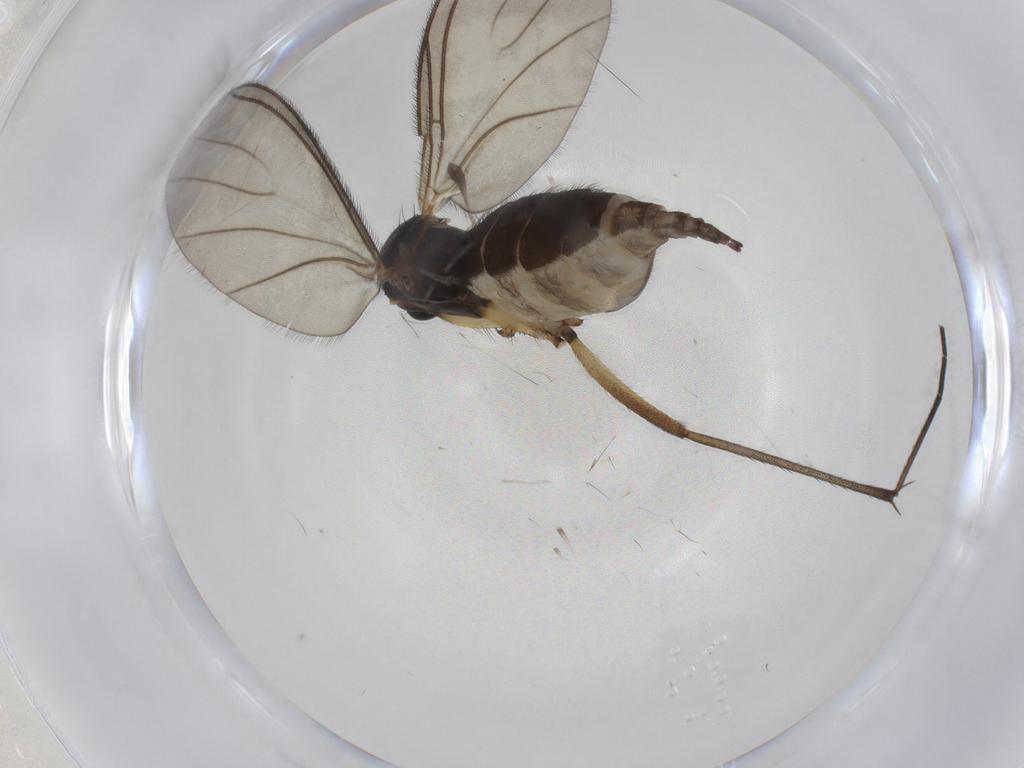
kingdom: Animalia
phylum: Arthropoda
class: Insecta
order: Diptera
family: Sciaridae
